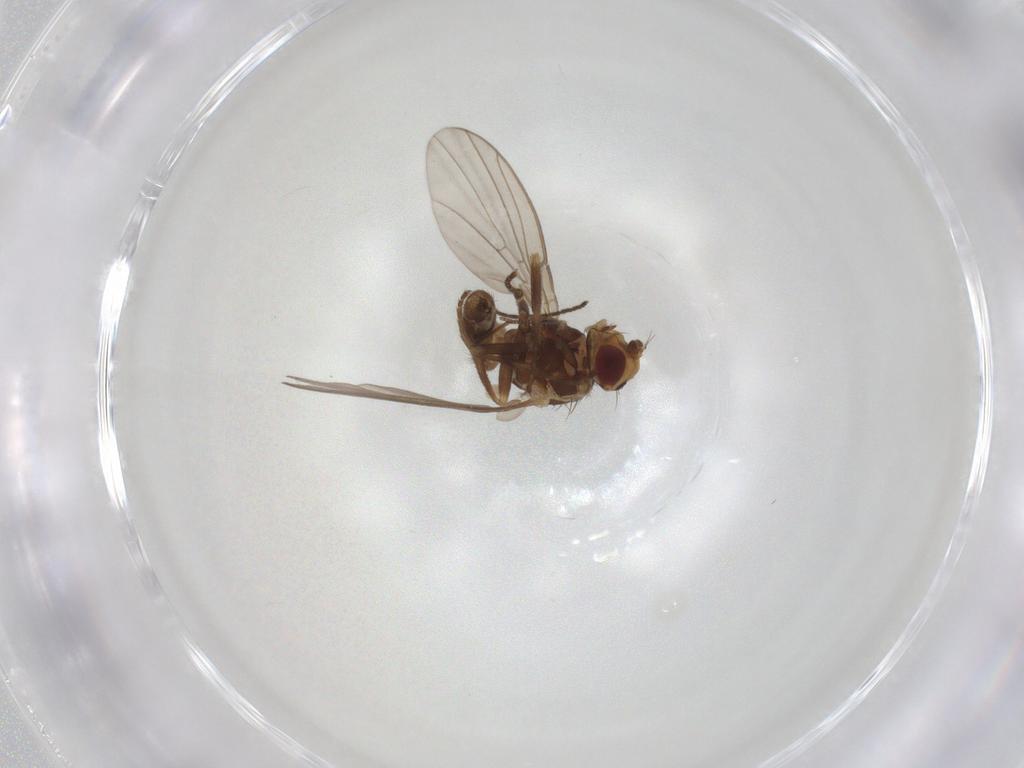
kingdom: Animalia
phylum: Arthropoda
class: Insecta
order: Diptera
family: Agromyzidae
